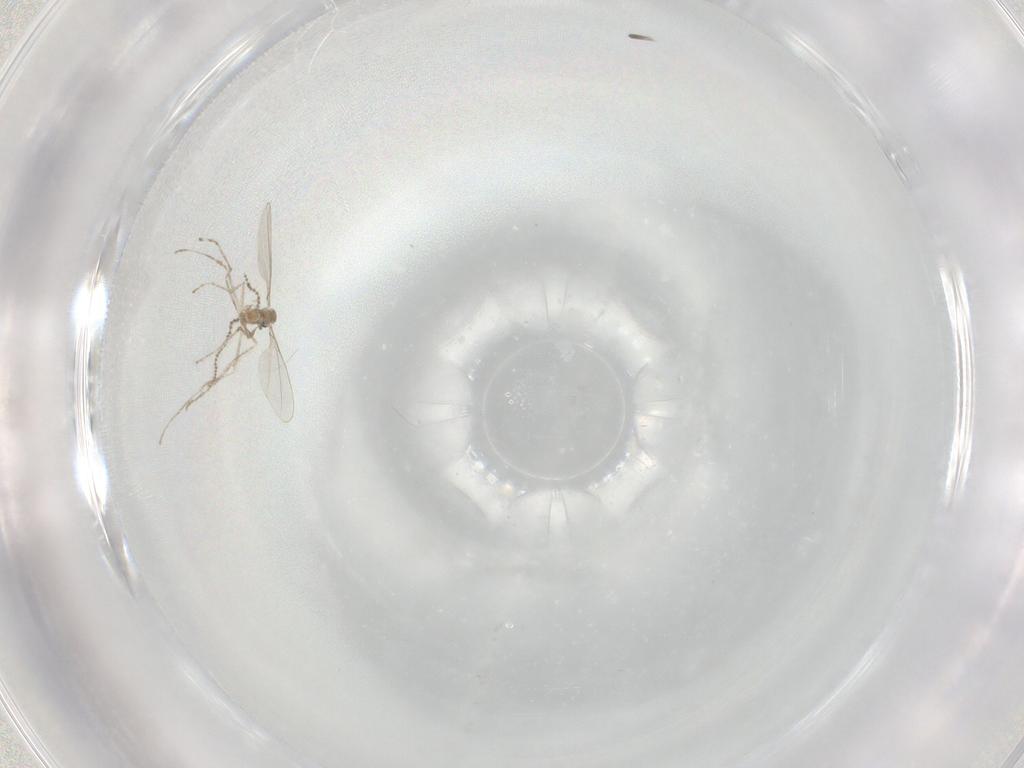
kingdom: Animalia
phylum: Arthropoda
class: Insecta
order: Diptera
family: Cecidomyiidae
